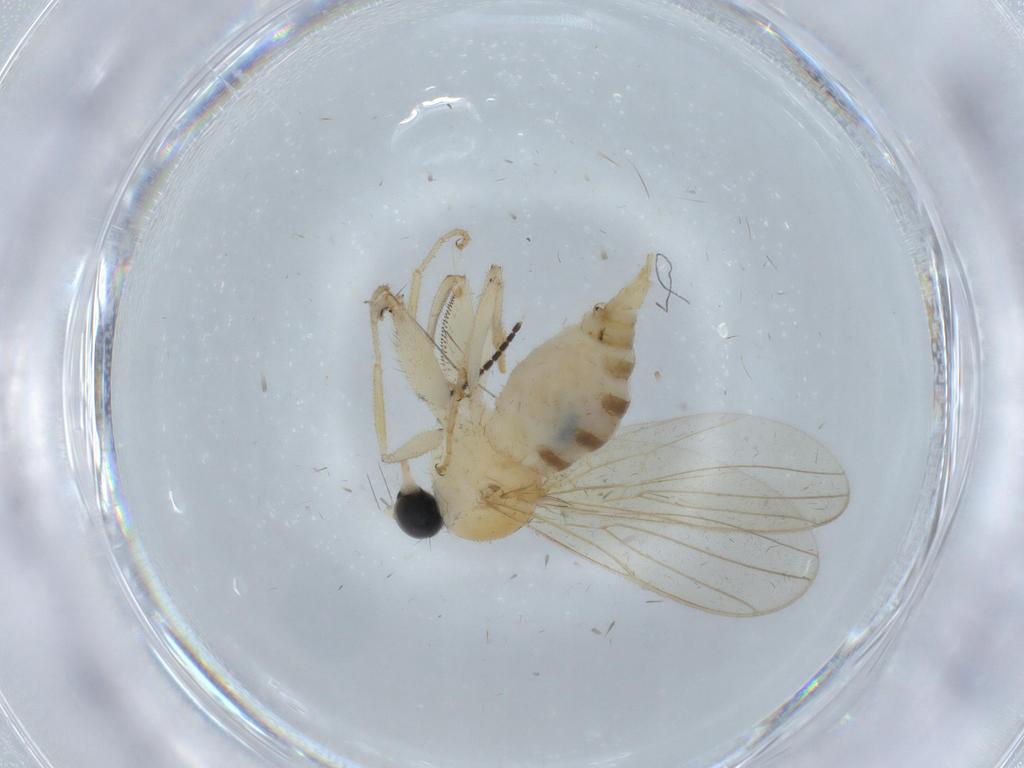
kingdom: Animalia
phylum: Arthropoda
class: Insecta
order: Diptera
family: Hybotidae
